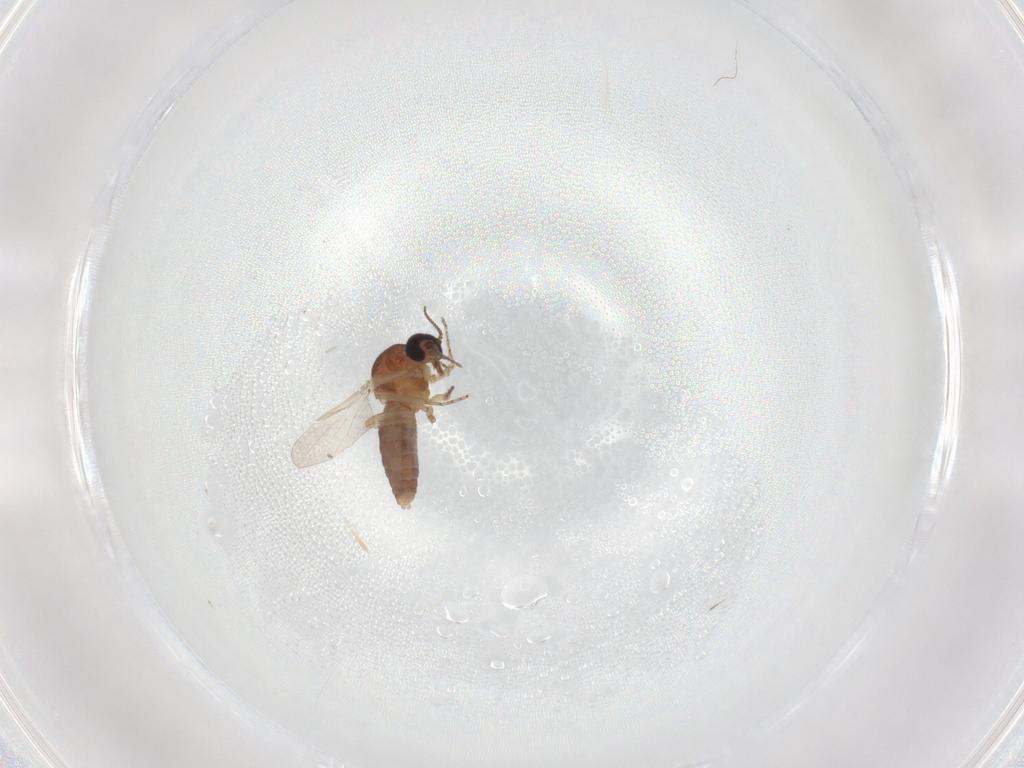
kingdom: Animalia
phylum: Arthropoda
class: Insecta
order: Diptera
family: Ceratopogonidae
